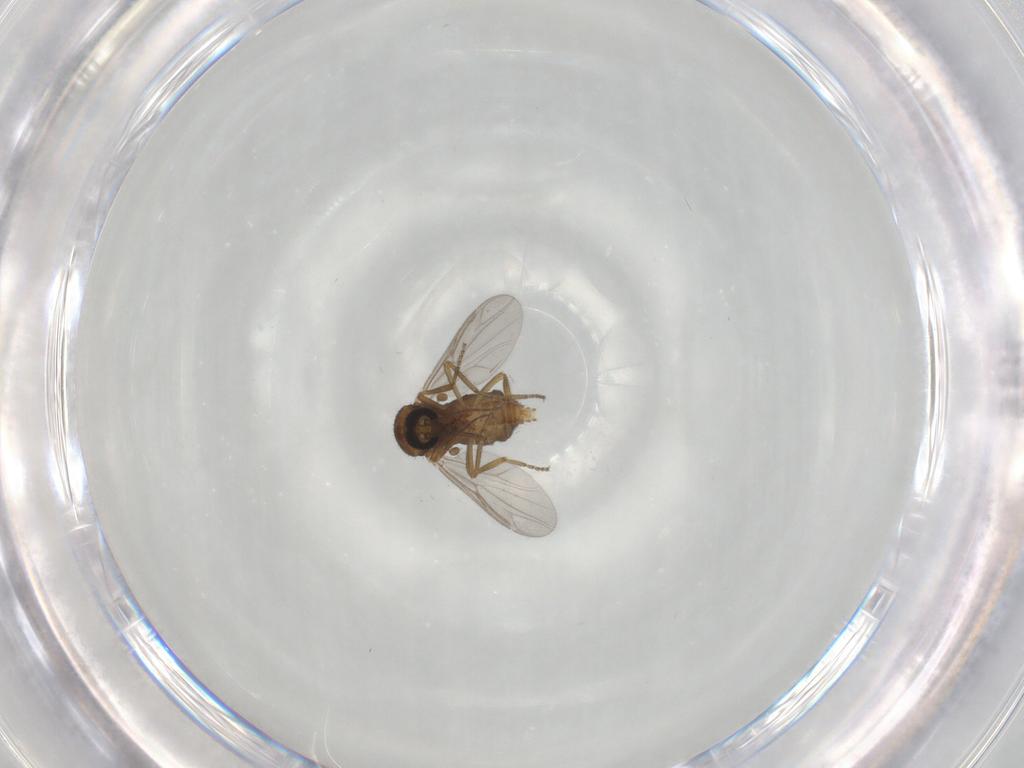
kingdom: Animalia
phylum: Arthropoda
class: Insecta
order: Diptera
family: Ceratopogonidae
